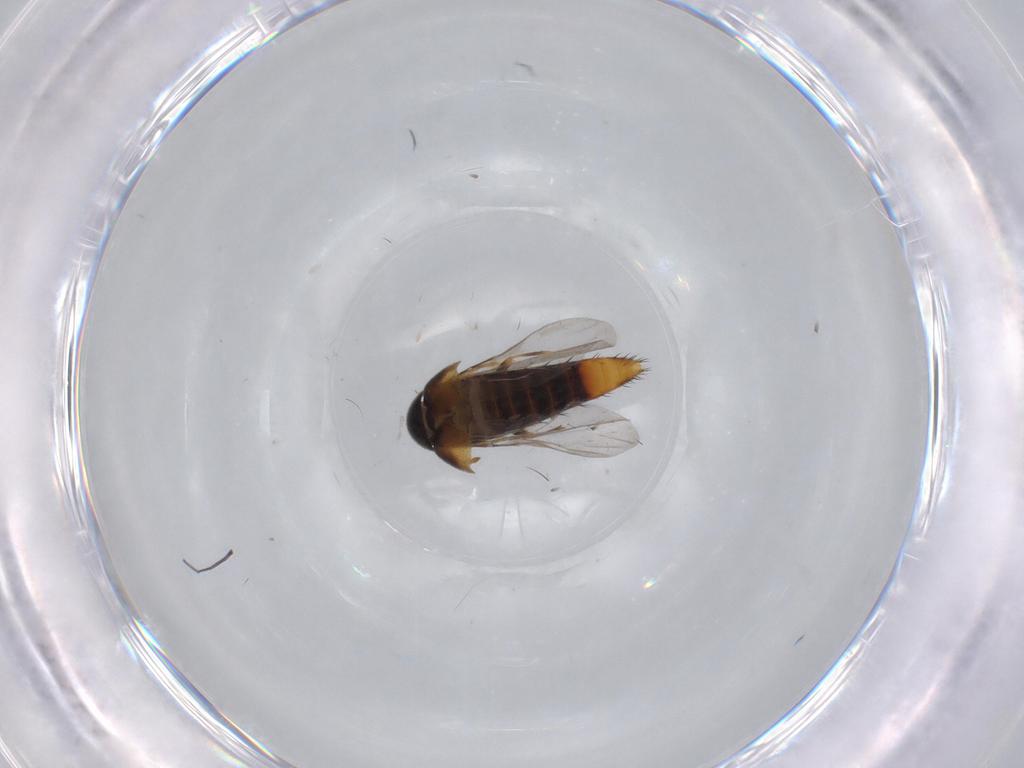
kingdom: Animalia
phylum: Arthropoda
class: Insecta
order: Coleoptera
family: Staphylinidae
